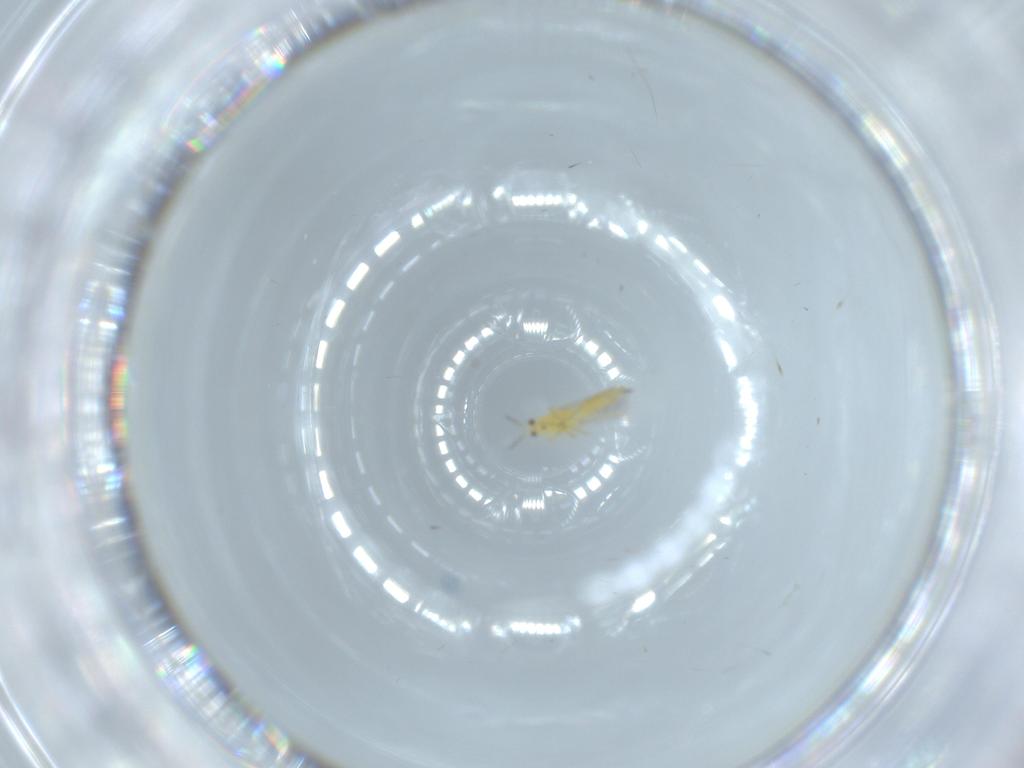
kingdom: Animalia
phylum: Arthropoda
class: Insecta
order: Thysanoptera
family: Thripidae
